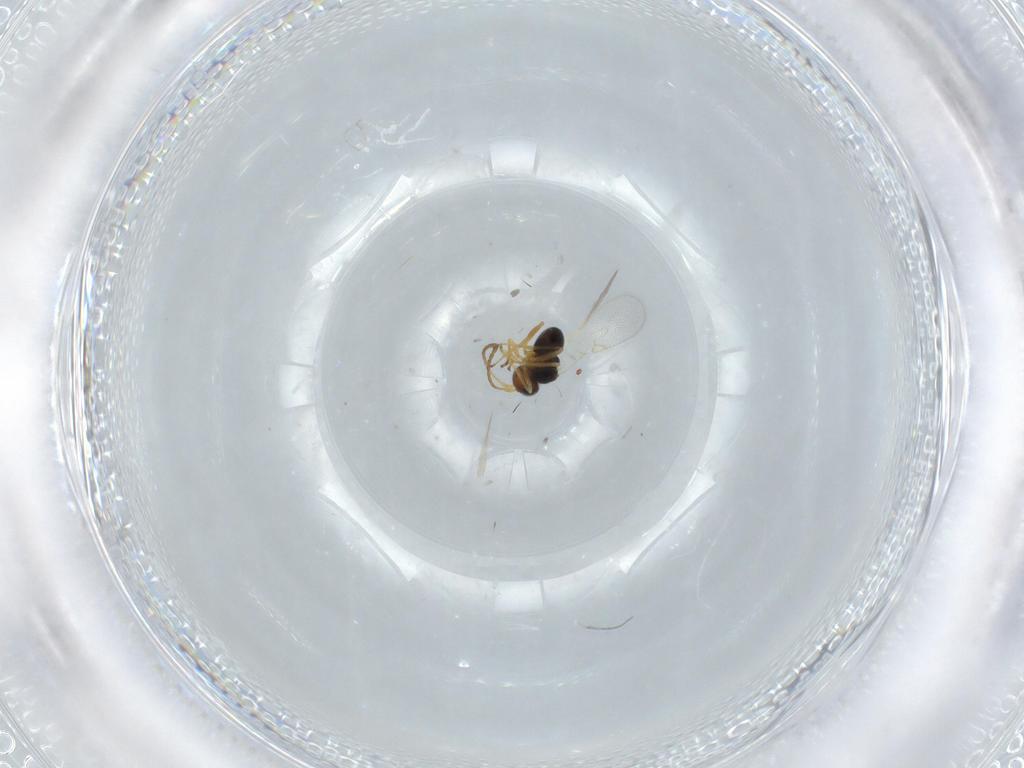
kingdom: Animalia
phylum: Arthropoda
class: Insecta
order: Hymenoptera
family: Figitidae
